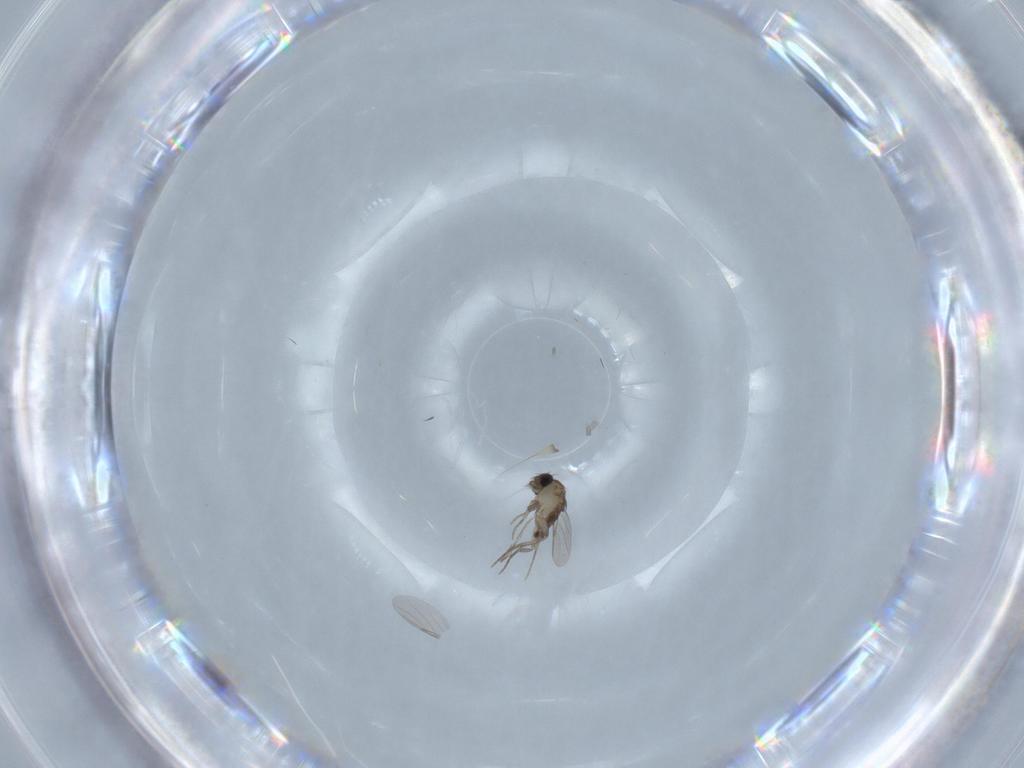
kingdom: Animalia
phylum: Arthropoda
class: Insecta
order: Diptera
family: Phoridae
